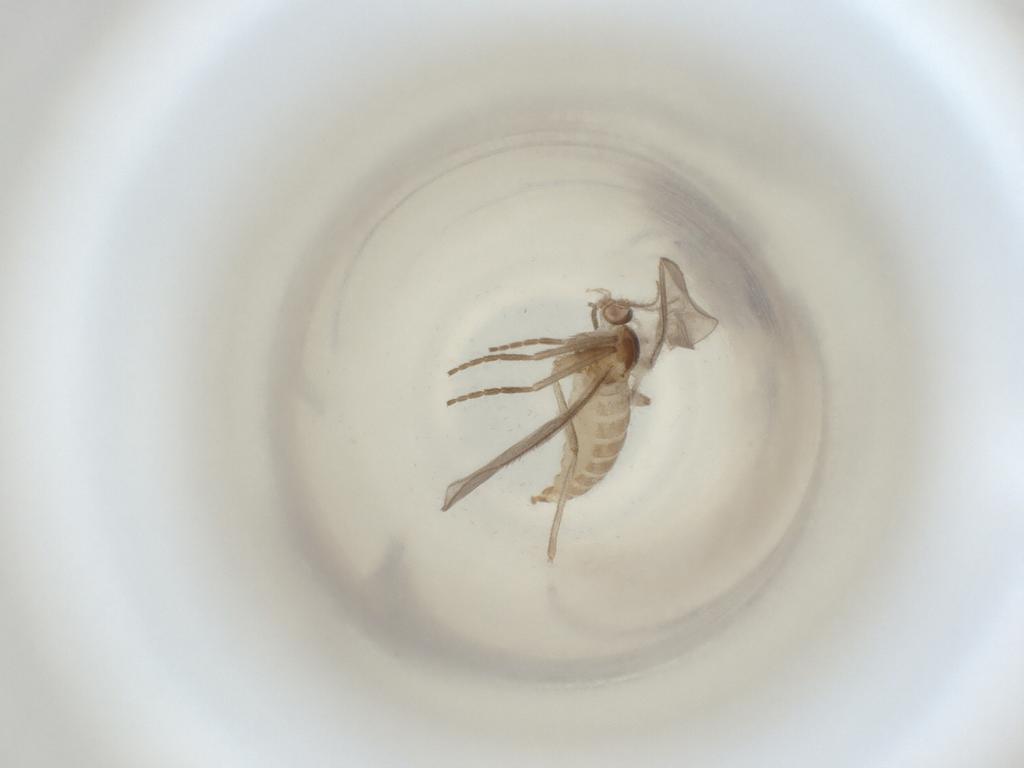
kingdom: Animalia
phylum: Arthropoda
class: Insecta
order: Diptera
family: Cecidomyiidae
